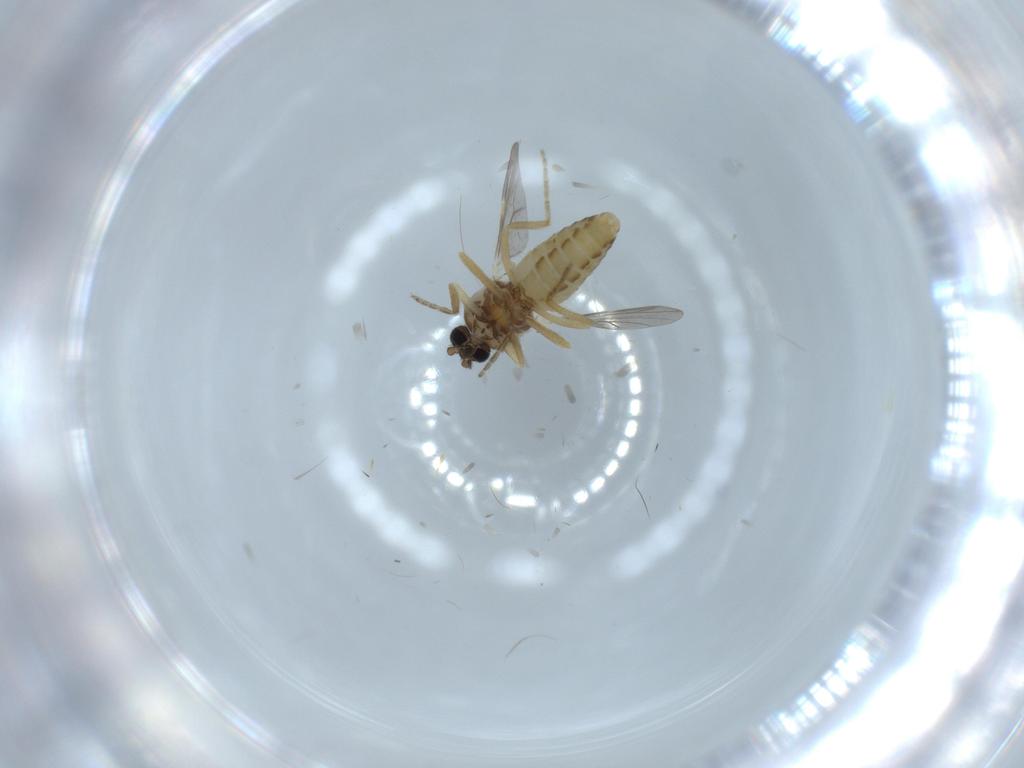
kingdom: Animalia
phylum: Arthropoda
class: Insecta
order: Diptera
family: Ceratopogonidae
